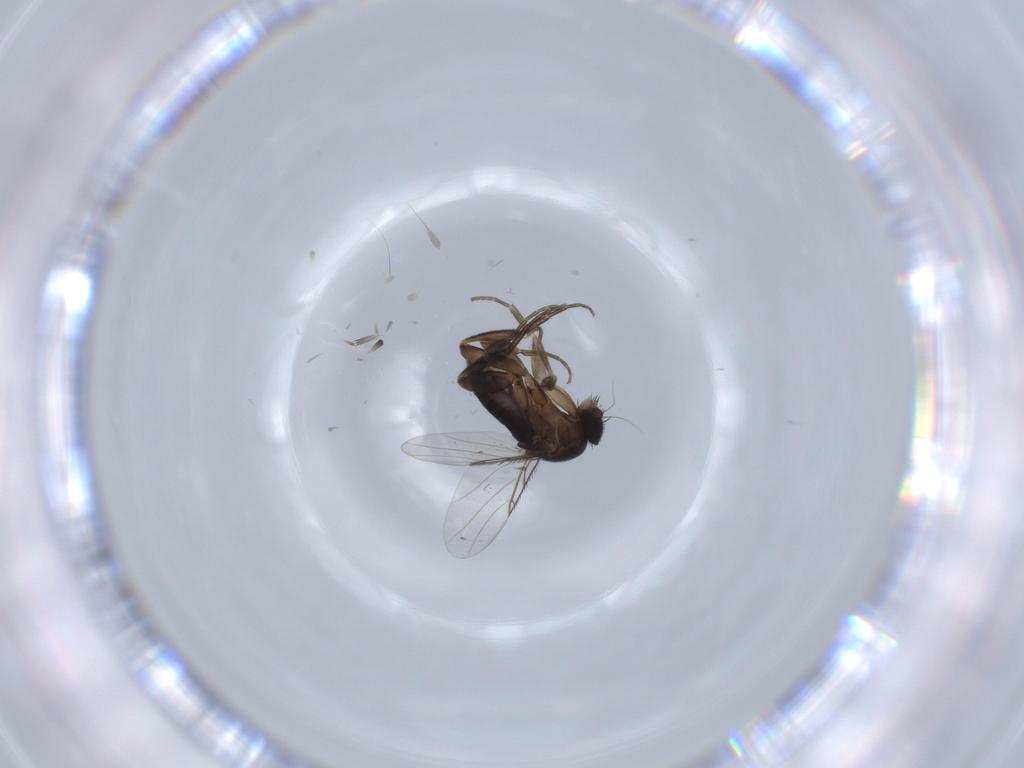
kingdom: Animalia
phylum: Arthropoda
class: Insecta
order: Diptera
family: Phoridae
